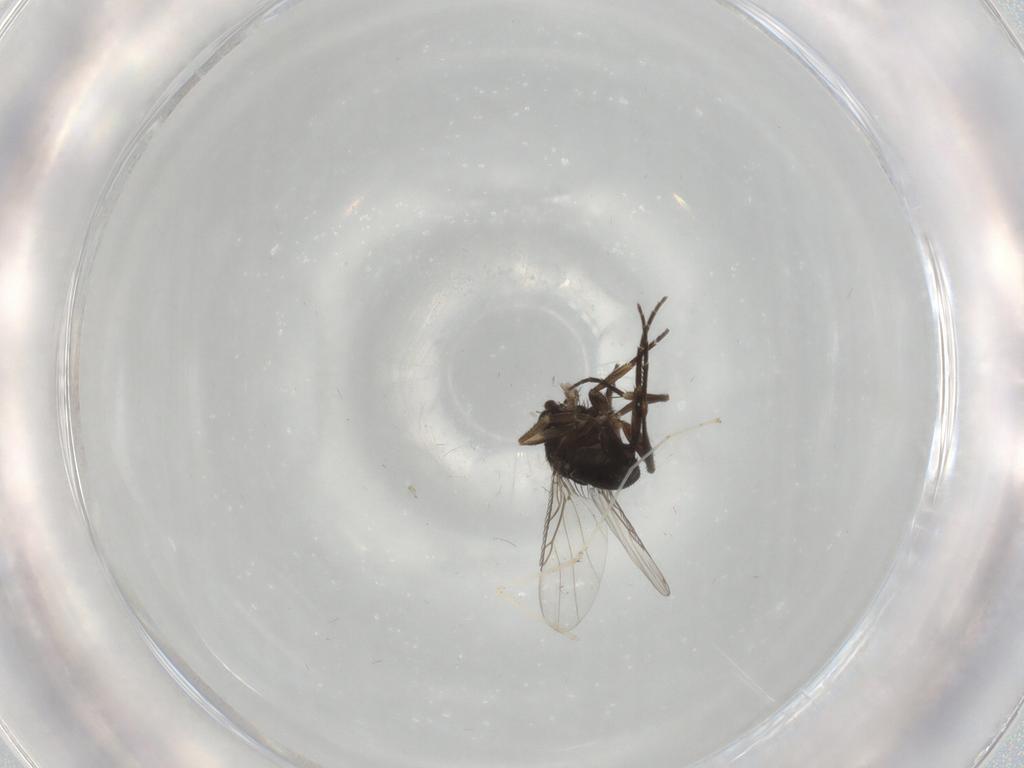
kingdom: Animalia
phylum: Arthropoda
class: Insecta
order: Diptera
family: Phoridae
